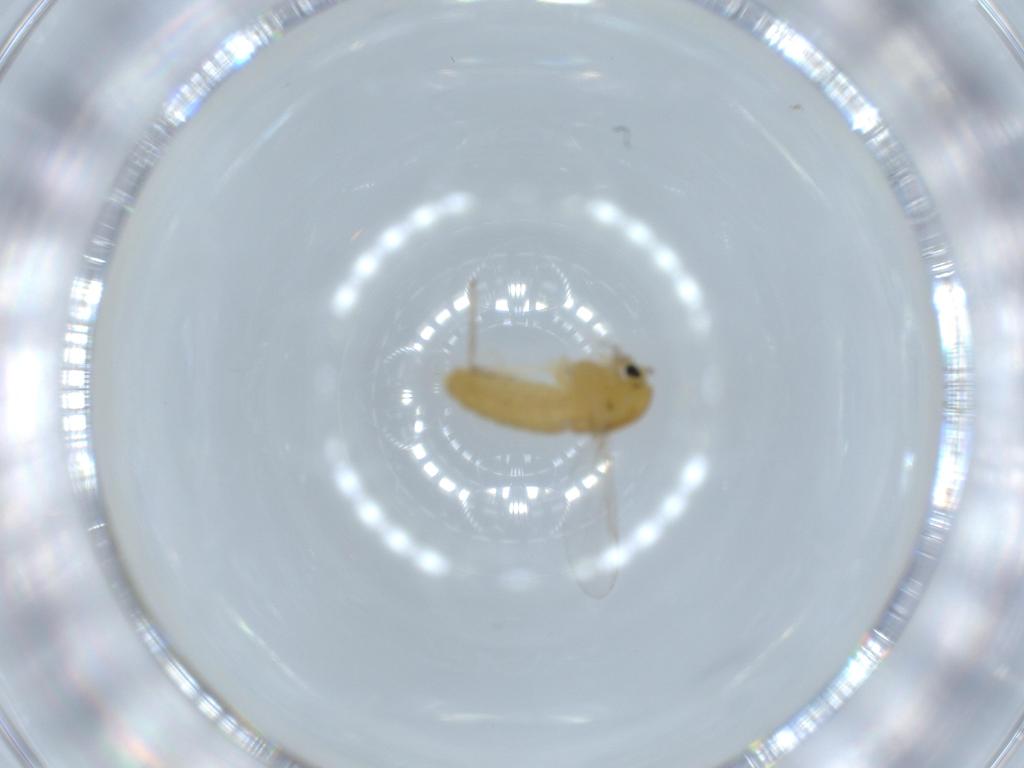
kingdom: Animalia
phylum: Arthropoda
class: Insecta
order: Diptera
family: Chironomidae
